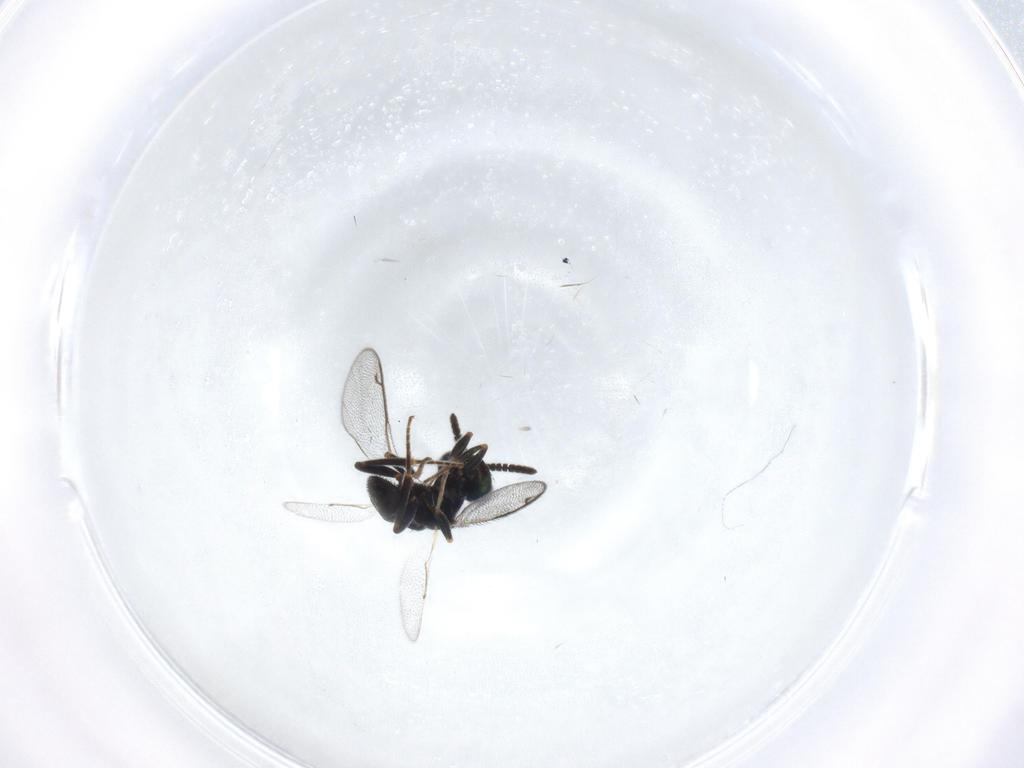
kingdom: Animalia
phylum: Arthropoda
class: Insecta
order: Hymenoptera
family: Cleonyminae
